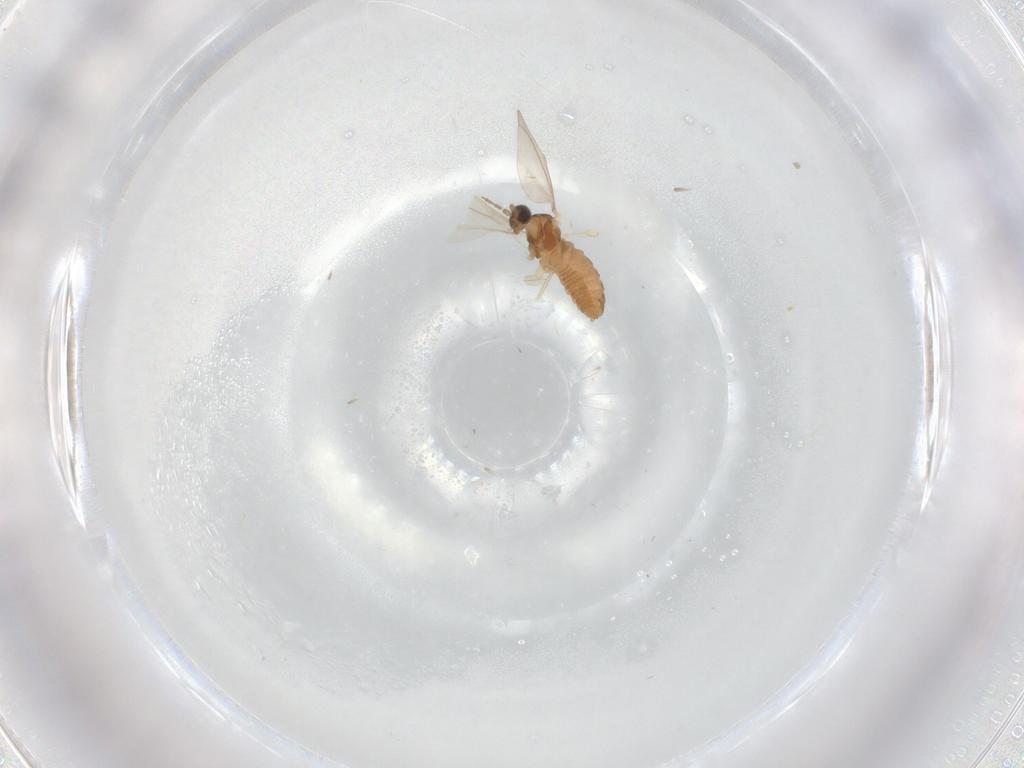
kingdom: Animalia
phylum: Arthropoda
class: Insecta
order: Diptera
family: Cecidomyiidae
